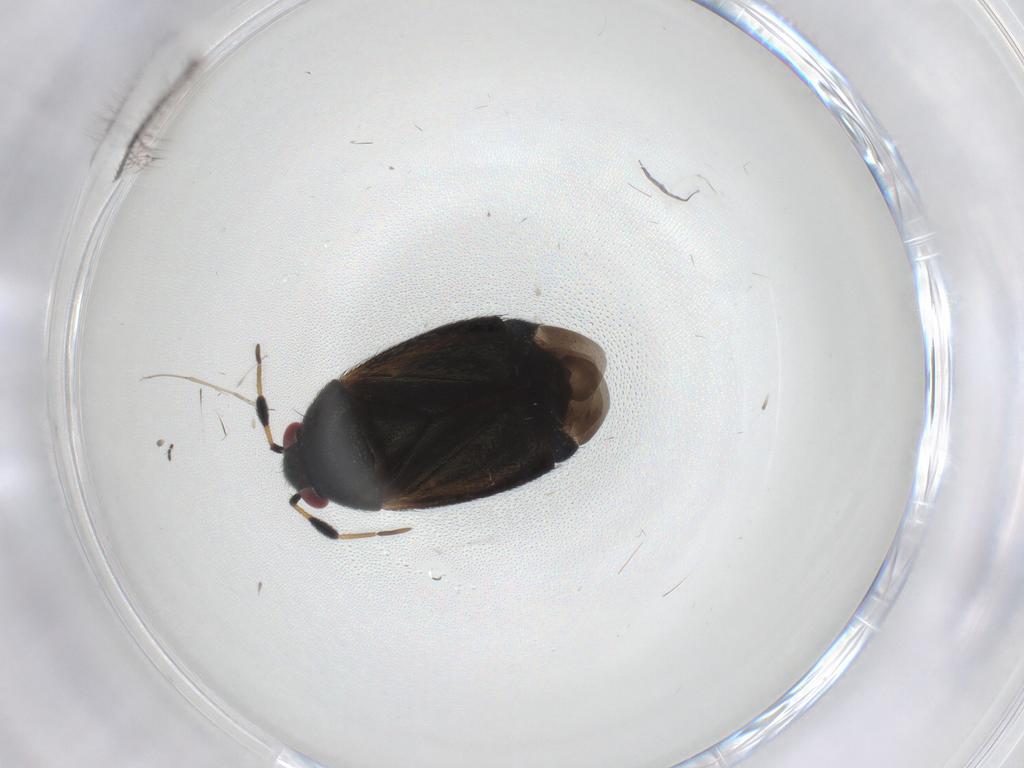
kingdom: Animalia
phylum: Arthropoda
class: Insecta
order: Hemiptera
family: Miridae
